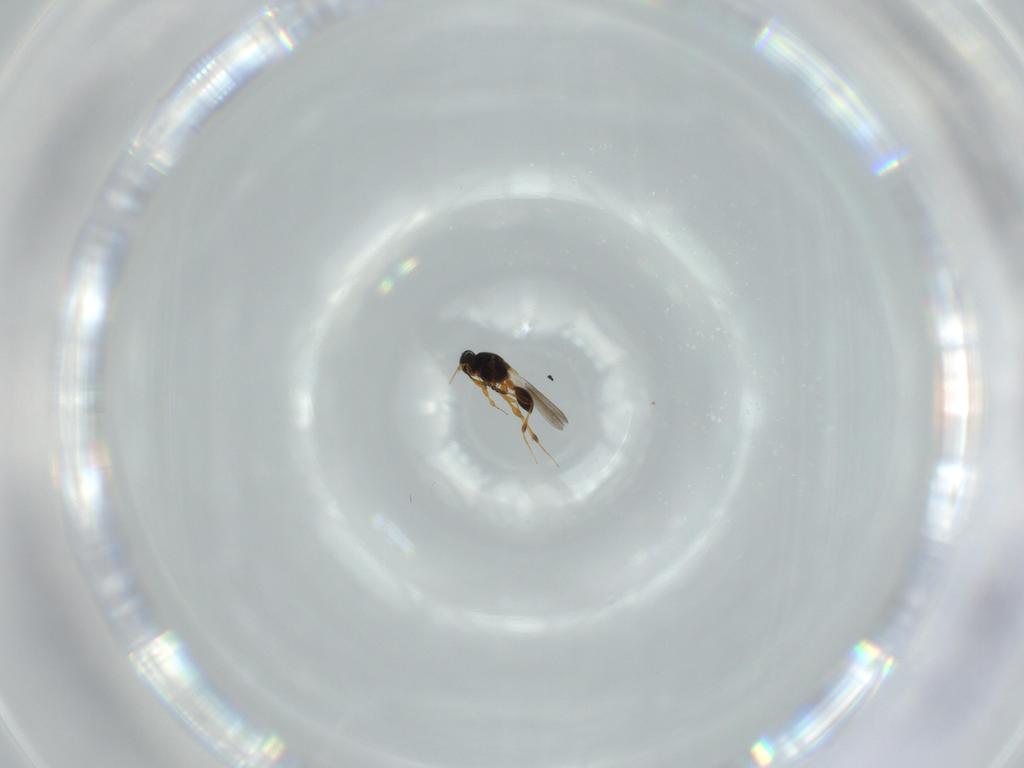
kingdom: Animalia
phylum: Arthropoda
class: Insecta
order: Hymenoptera
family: Platygastridae
